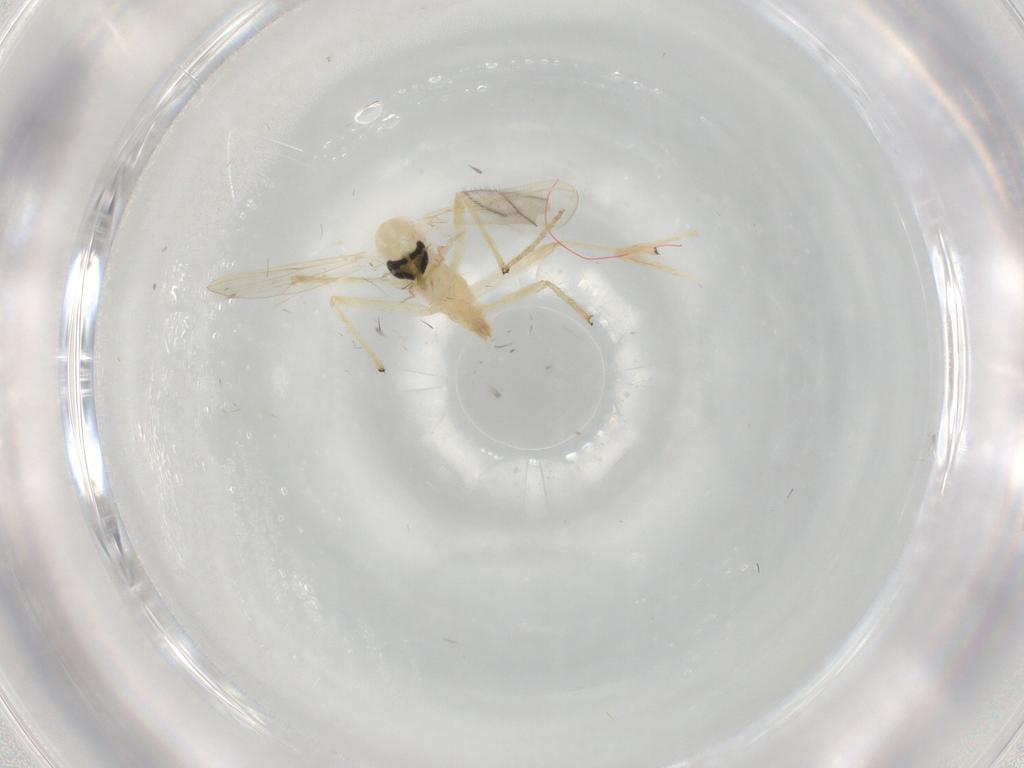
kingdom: Animalia
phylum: Arthropoda
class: Insecta
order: Diptera
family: Chironomidae
